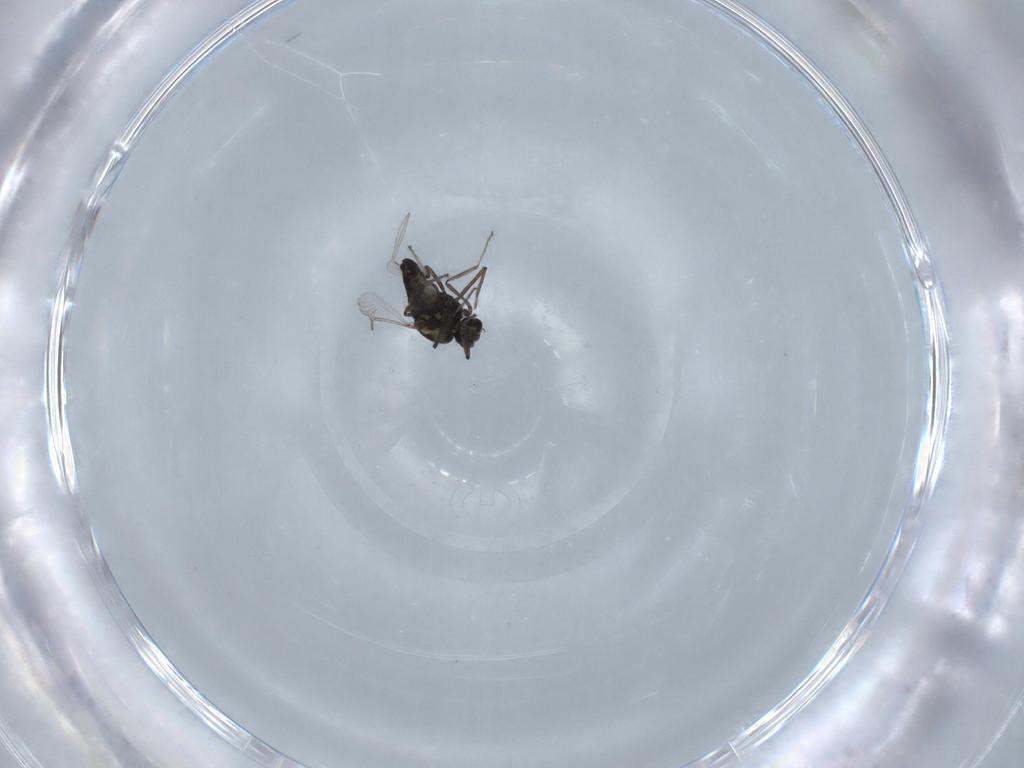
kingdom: Animalia
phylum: Arthropoda
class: Insecta
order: Diptera
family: Ceratopogonidae
